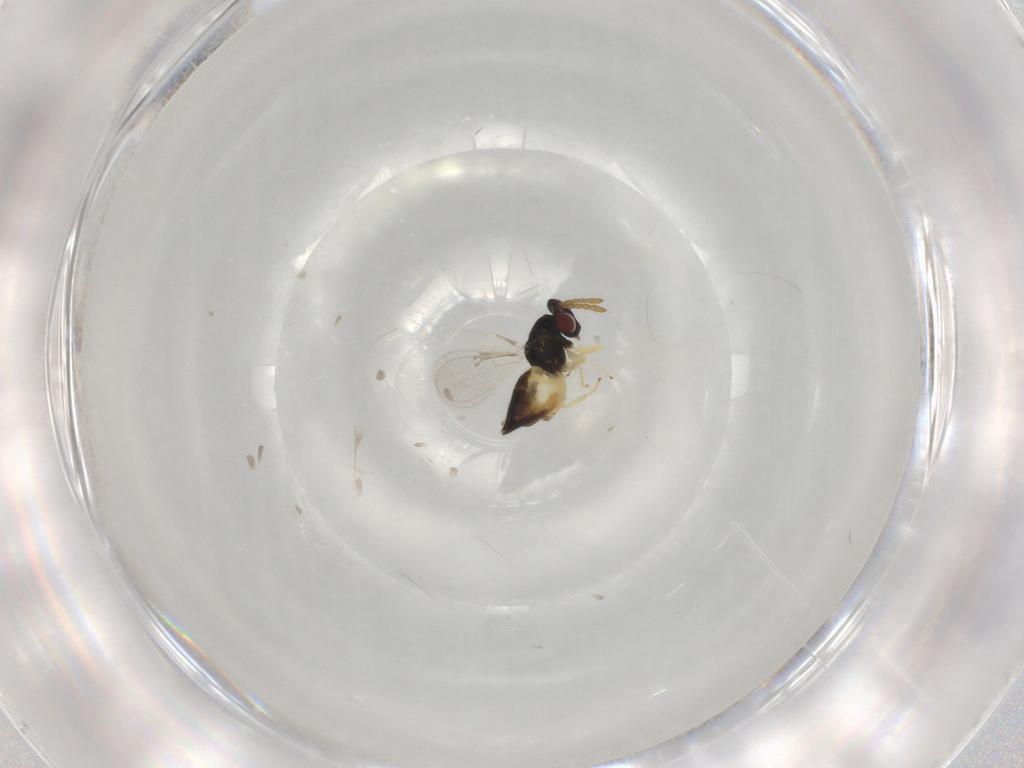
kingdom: Animalia
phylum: Arthropoda
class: Insecta
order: Hymenoptera
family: Eulophidae
